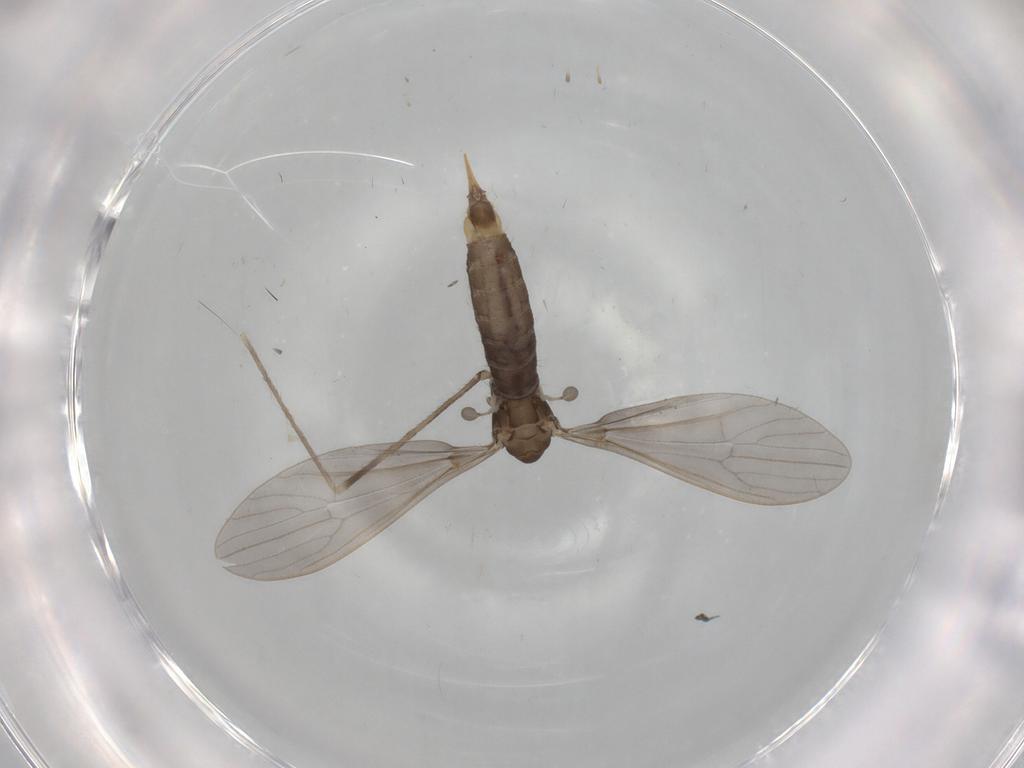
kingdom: Animalia
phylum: Arthropoda
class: Insecta
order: Diptera
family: Limoniidae
